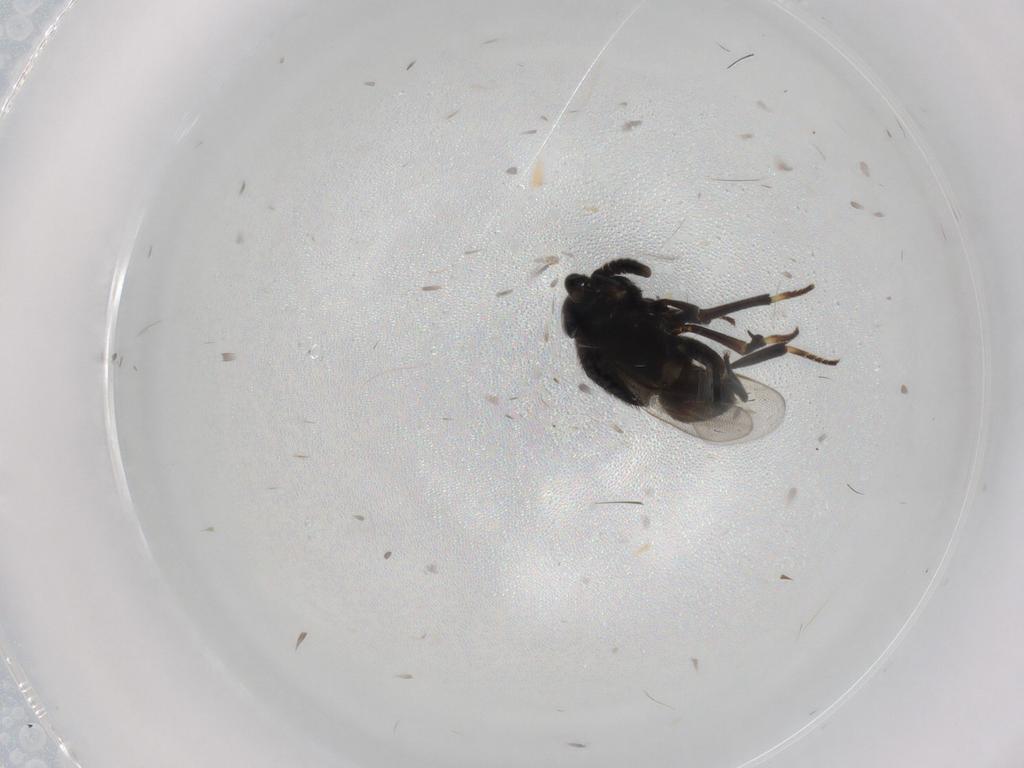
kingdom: Animalia
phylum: Arthropoda
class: Insecta
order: Hymenoptera
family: Encyrtidae
